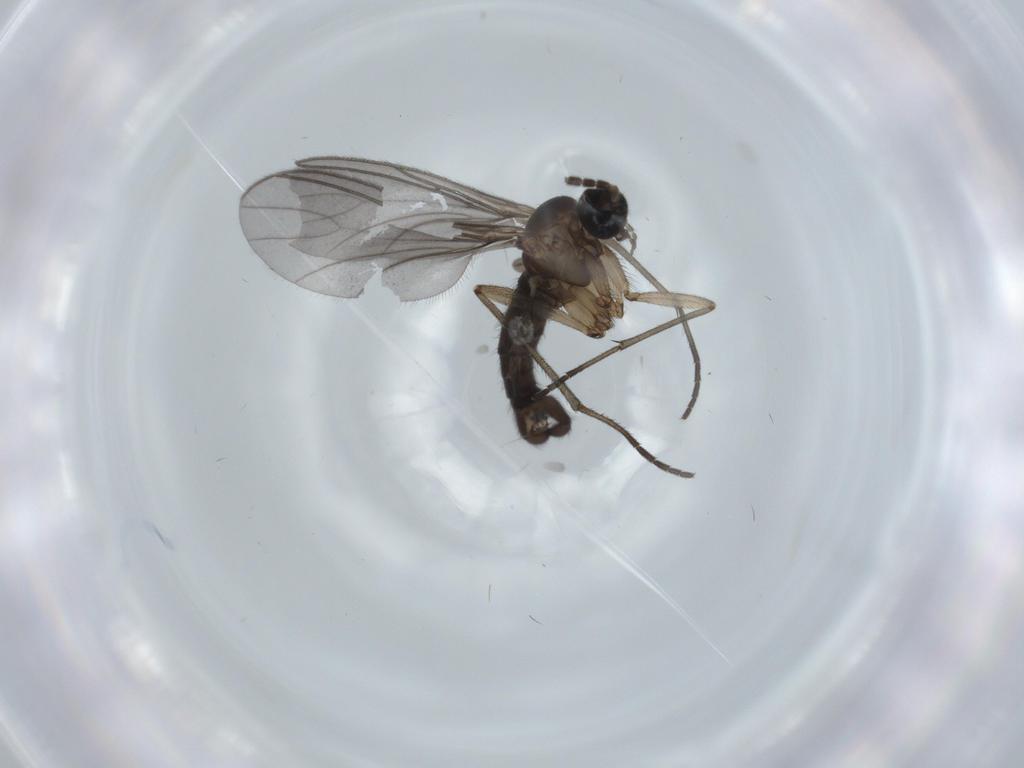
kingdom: Animalia
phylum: Arthropoda
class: Insecta
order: Diptera
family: Sciaridae
